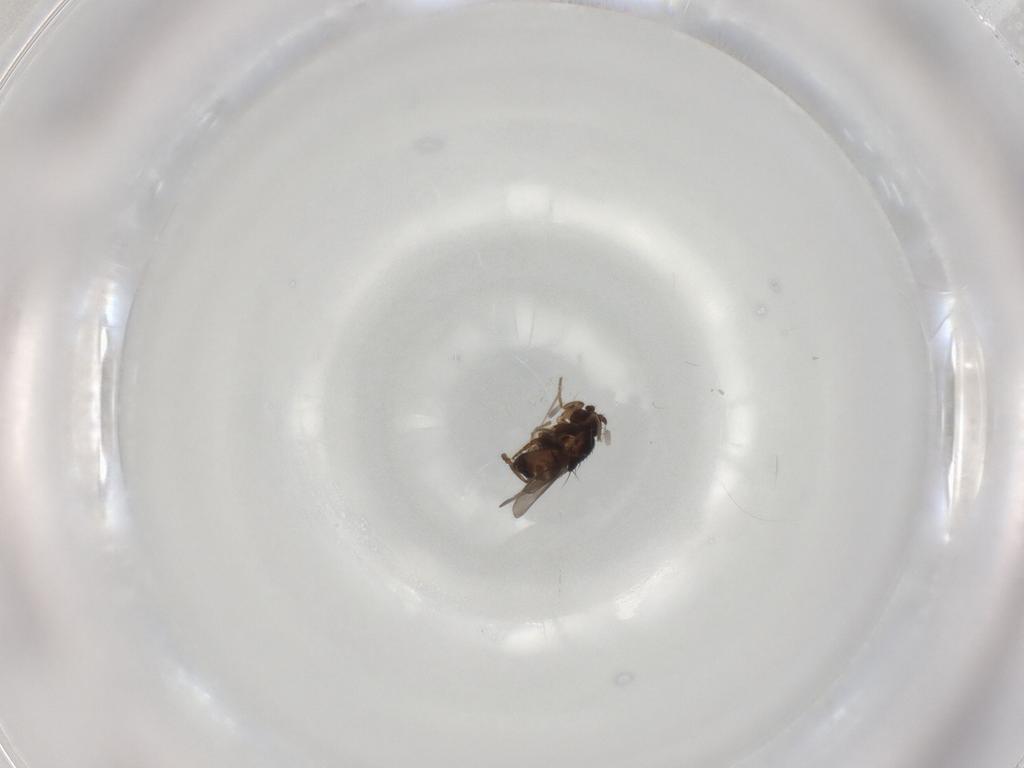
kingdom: Animalia
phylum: Arthropoda
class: Insecta
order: Diptera
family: Sphaeroceridae
